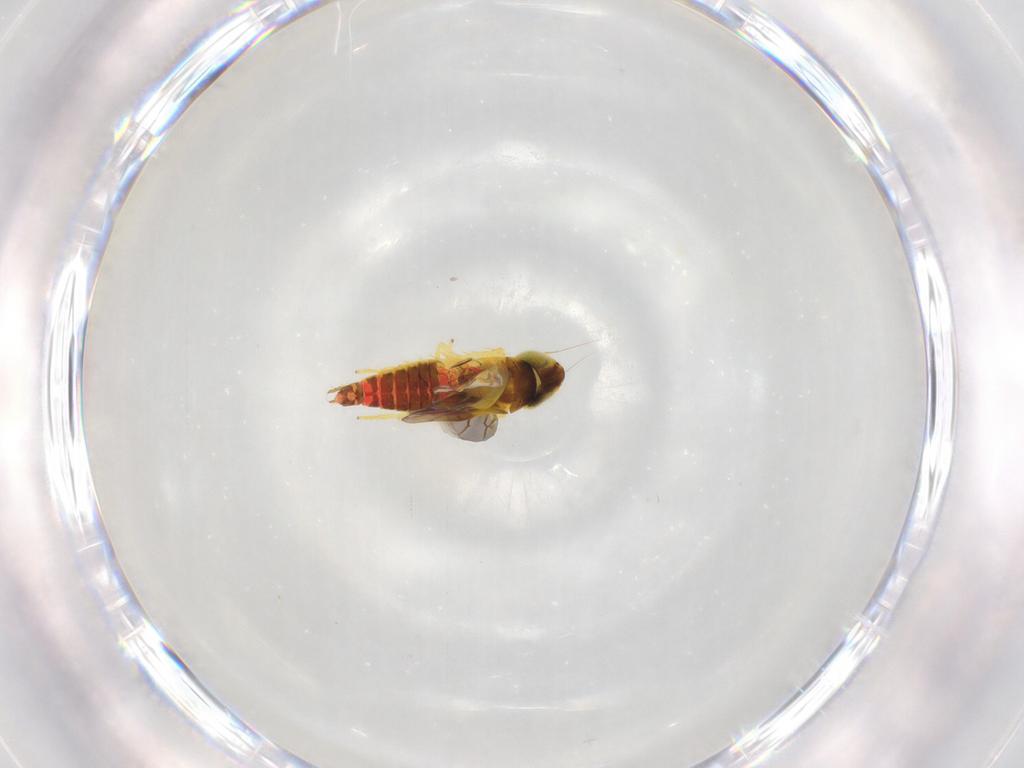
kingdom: Animalia
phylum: Arthropoda
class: Insecta
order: Hemiptera
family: Cicadellidae
